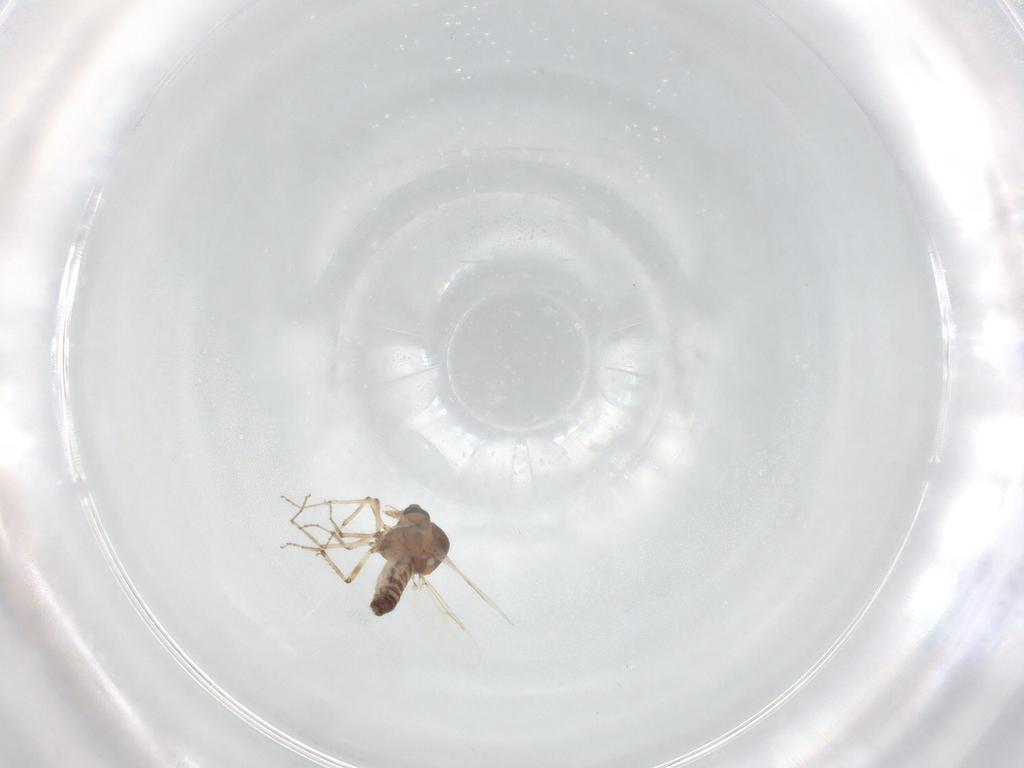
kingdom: Animalia
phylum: Arthropoda
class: Insecta
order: Diptera
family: Ceratopogonidae
